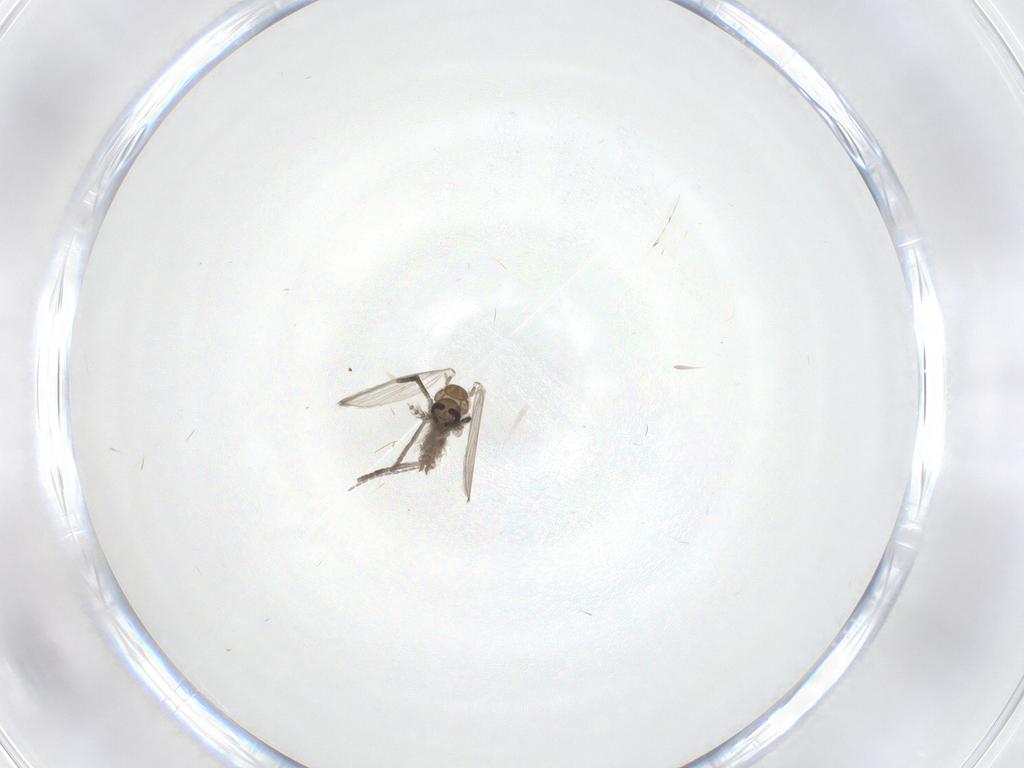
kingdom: Animalia
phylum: Arthropoda
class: Insecta
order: Diptera
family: Psychodidae
